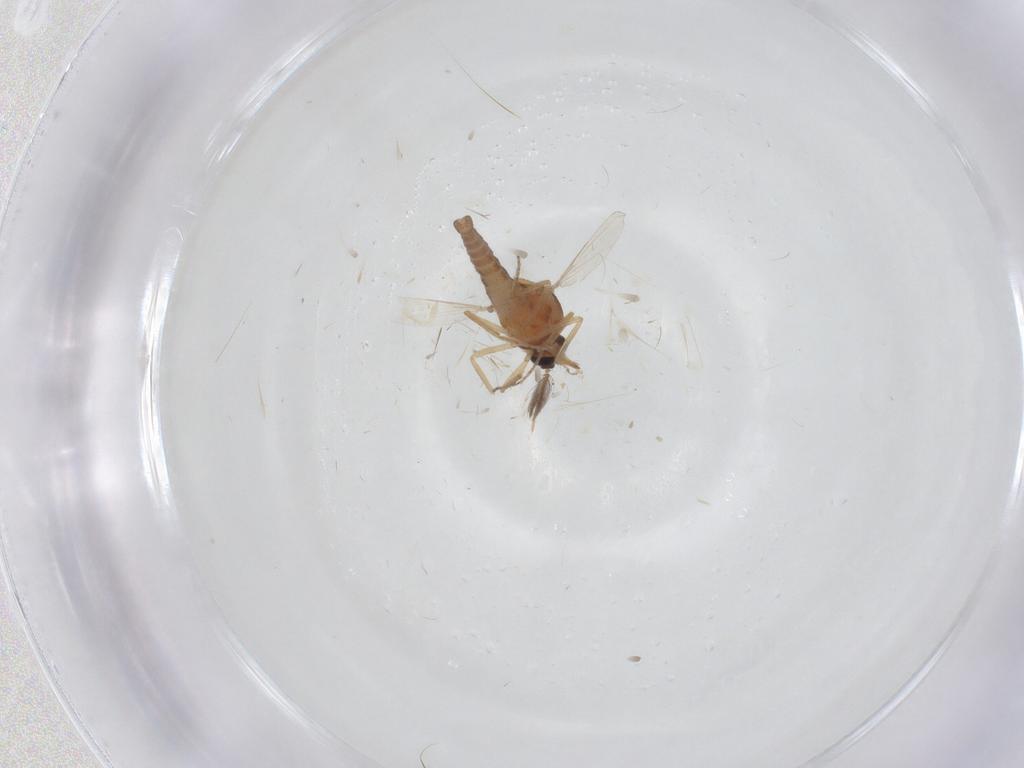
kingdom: Animalia
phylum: Arthropoda
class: Insecta
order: Diptera
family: Ceratopogonidae
